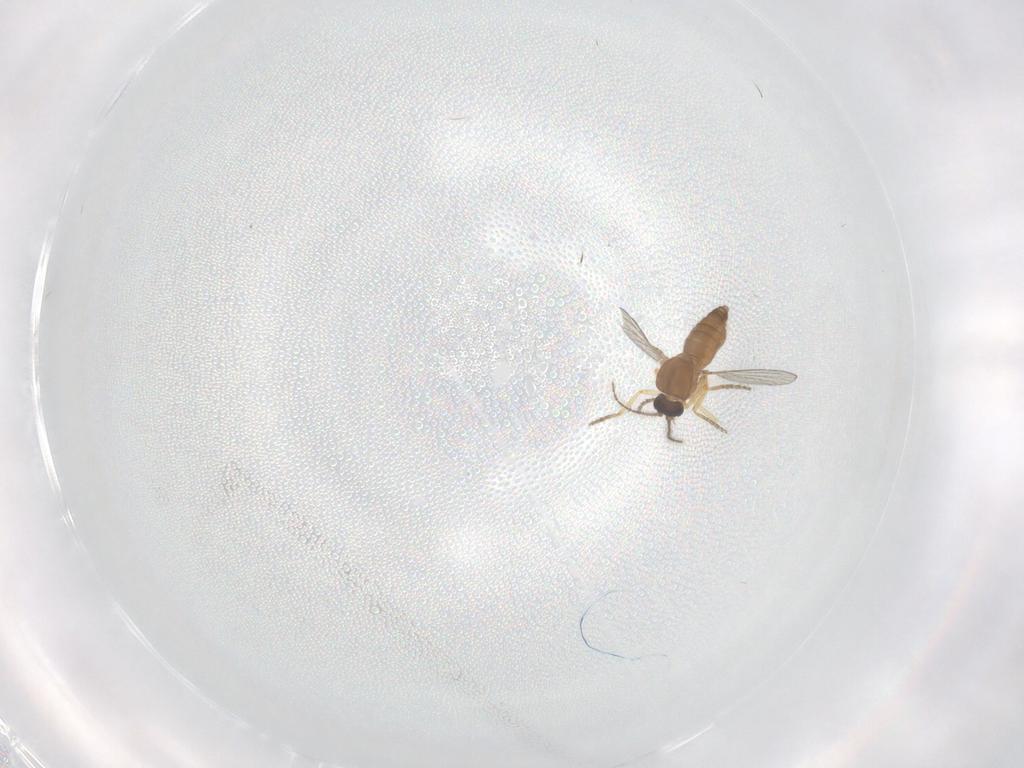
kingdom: Animalia
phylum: Arthropoda
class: Insecta
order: Diptera
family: Ceratopogonidae
